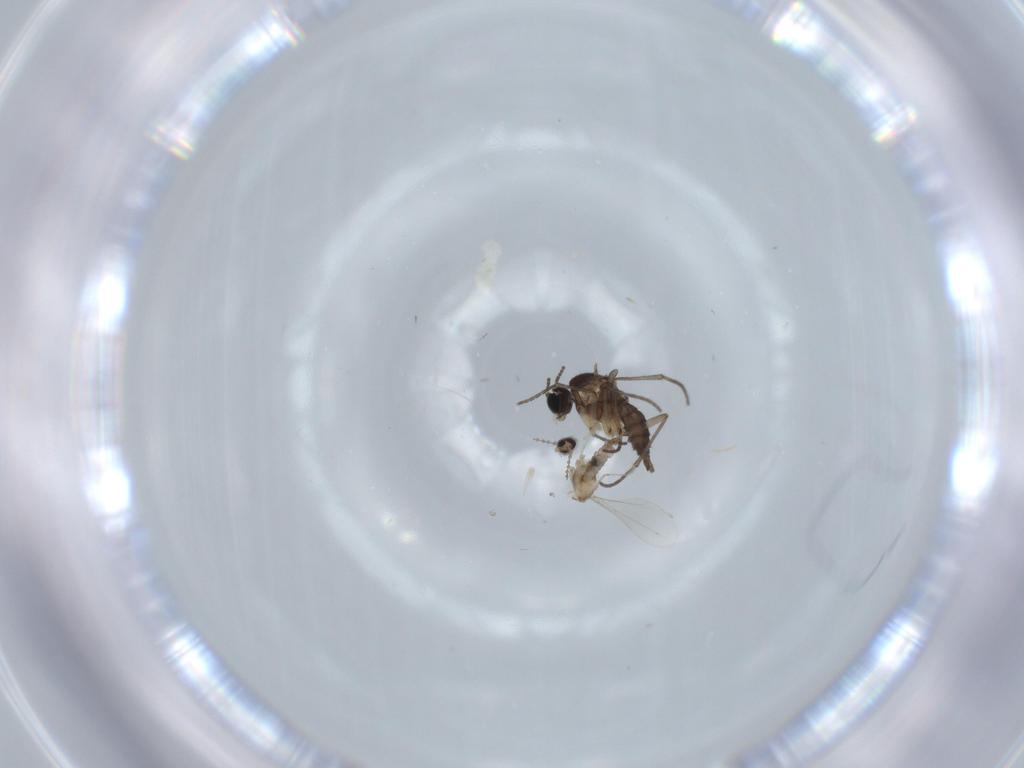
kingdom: Animalia
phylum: Arthropoda
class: Insecta
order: Diptera
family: Sciaridae
